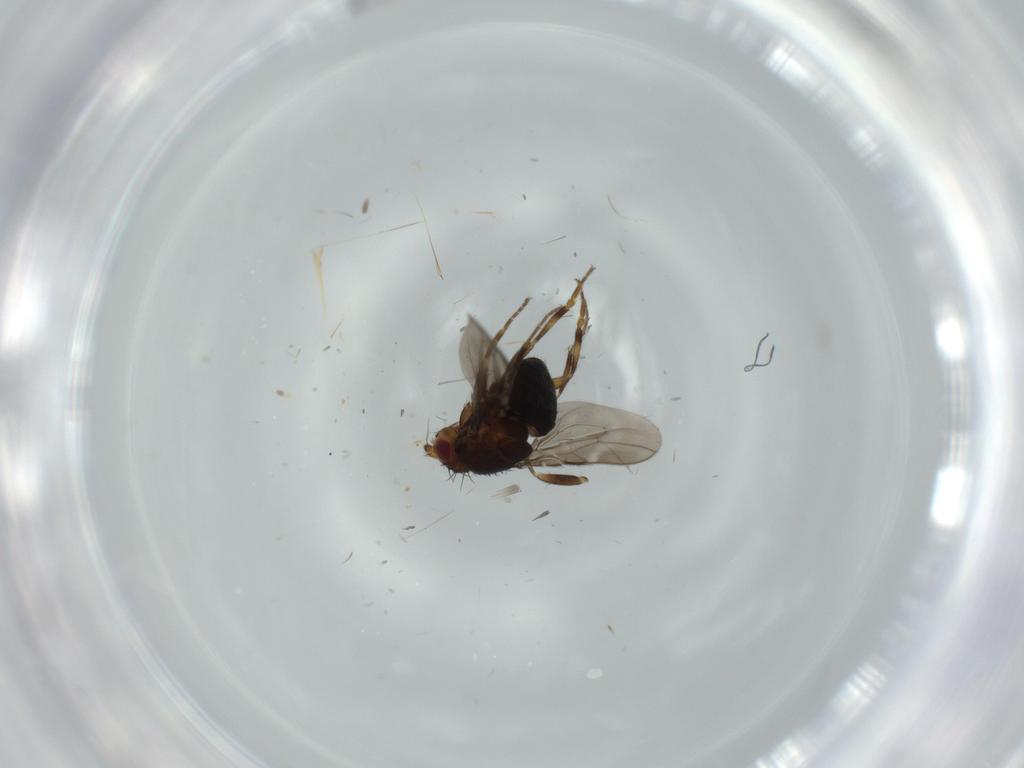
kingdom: Animalia
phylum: Arthropoda
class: Insecta
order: Diptera
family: Sphaeroceridae
